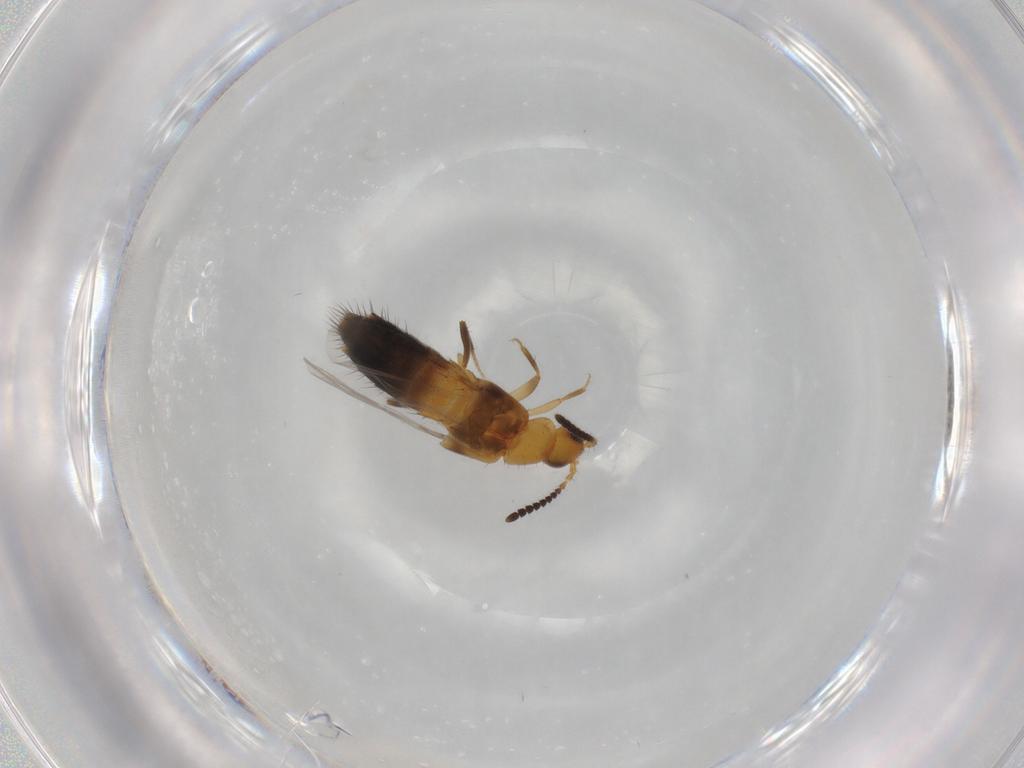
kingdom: Animalia
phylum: Arthropoda
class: Insecta
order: Coleoptera
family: Staphylinidae
